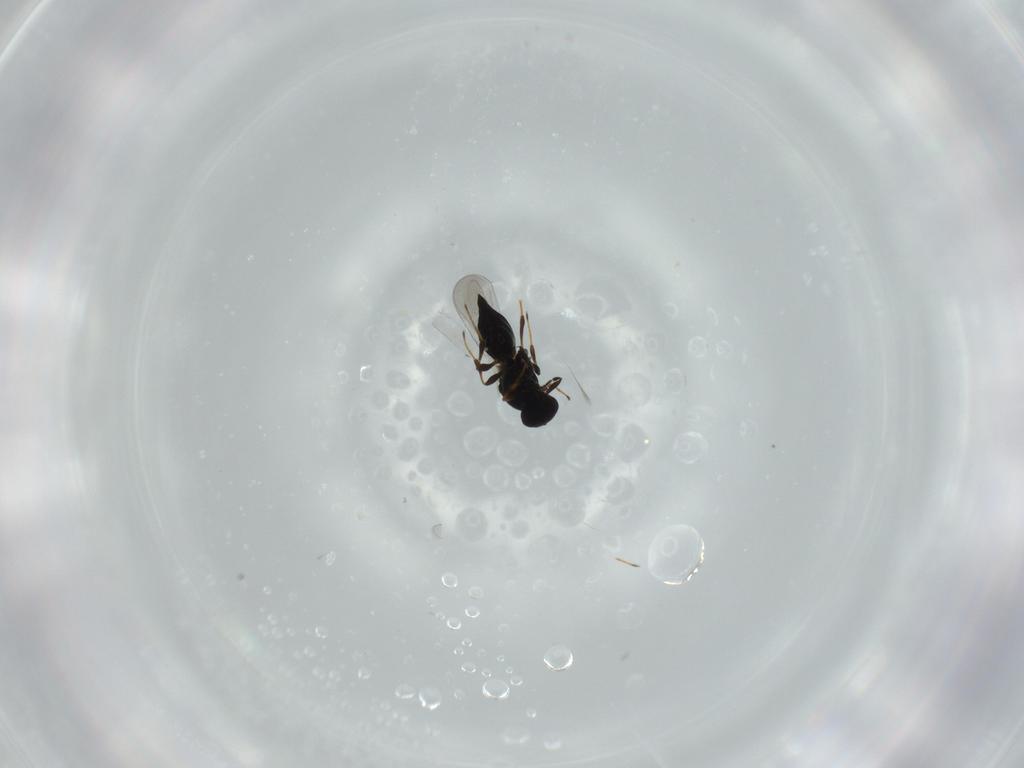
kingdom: Animalia
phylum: Arthropoda
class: Insecta
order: Hymenoptera
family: Platygastridae
